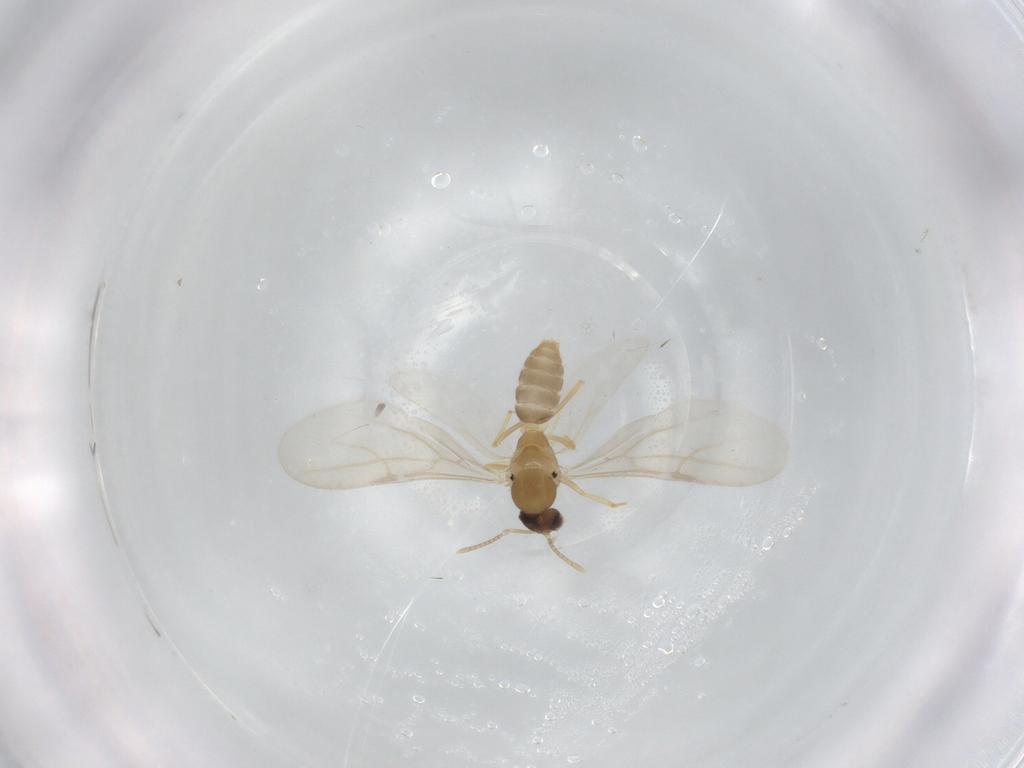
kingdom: Animalia
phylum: Arthropoda
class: Insecta
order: Hymenoptera
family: Formicidae
